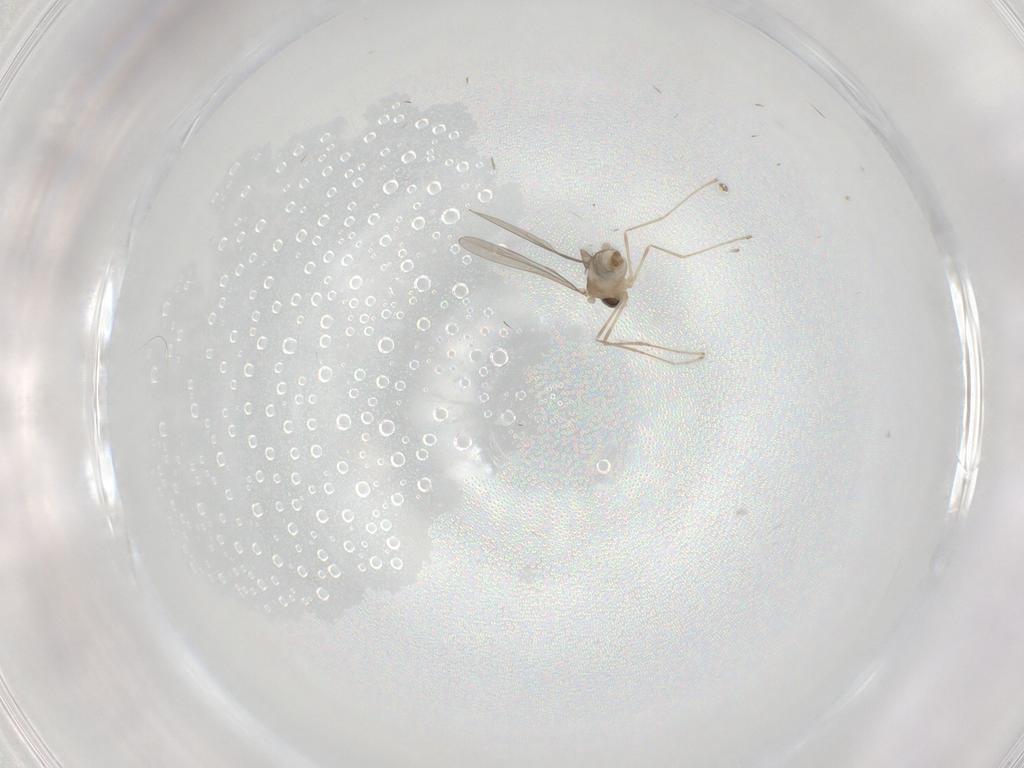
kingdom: Animalia
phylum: Arthropoda
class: Insecta
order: Diptera
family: Cecidomyiidae
